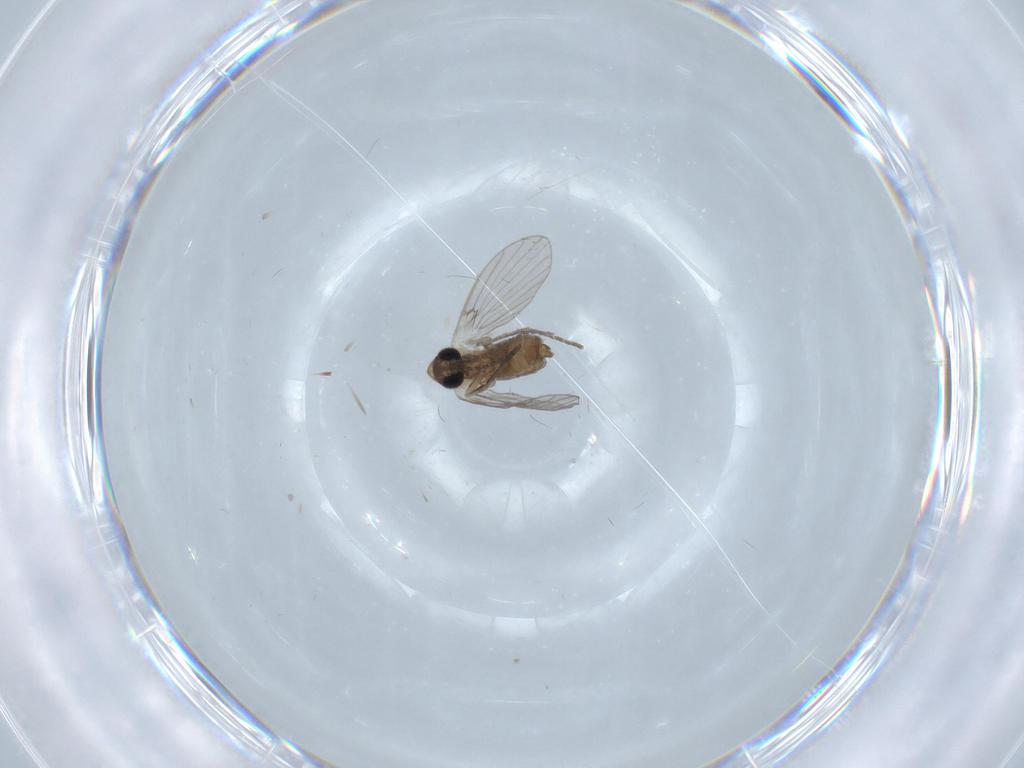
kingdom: Animalia
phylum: Arthropoda
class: Insecta
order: Diptera
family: Psychodidae
